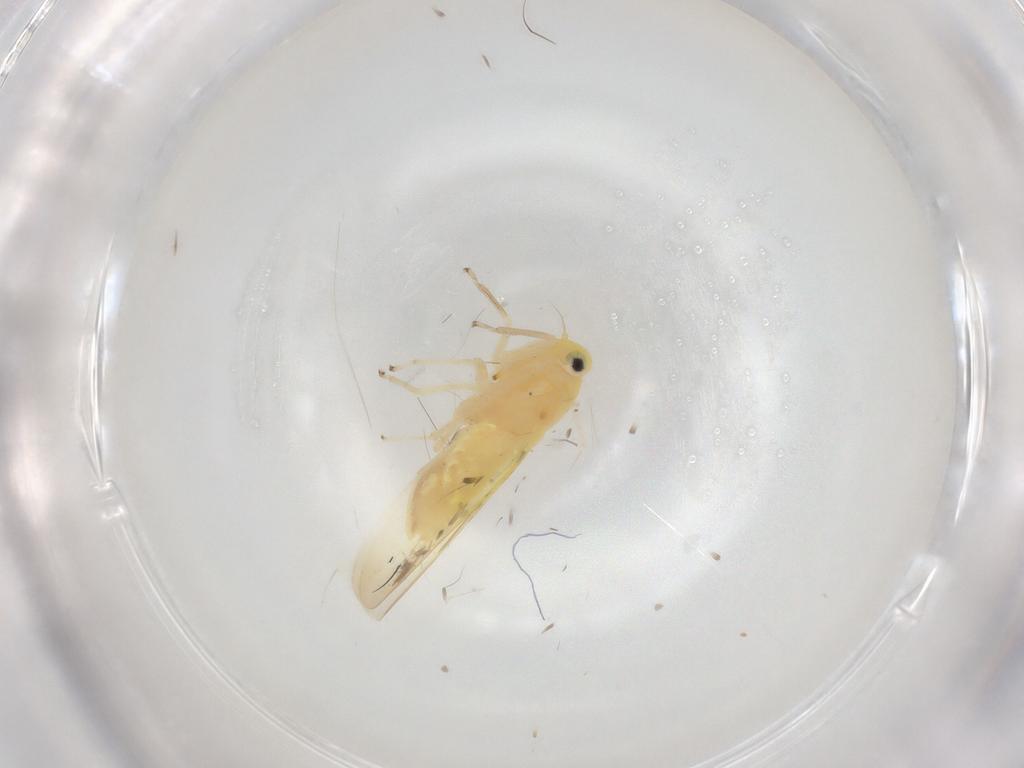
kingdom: Animalia
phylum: Arthropoda
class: Insecta
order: Hemiptera
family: Cicadellidae
